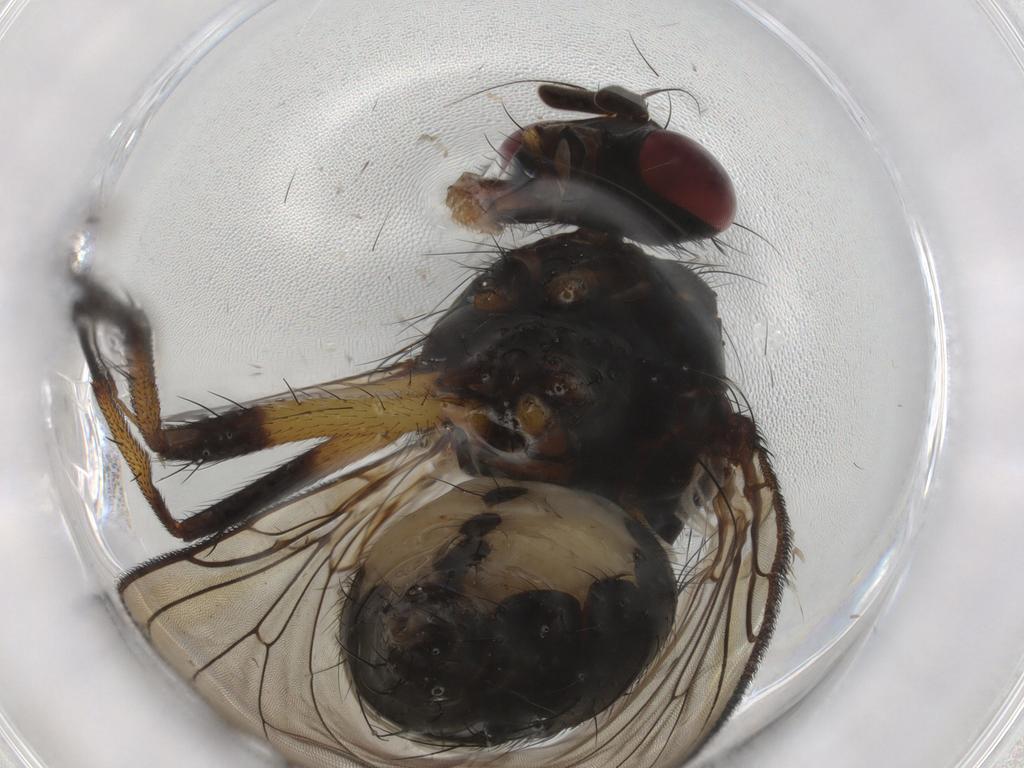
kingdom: Animalia
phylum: Arthropoda
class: Insecta
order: Diptera
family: Anthomyiidae
